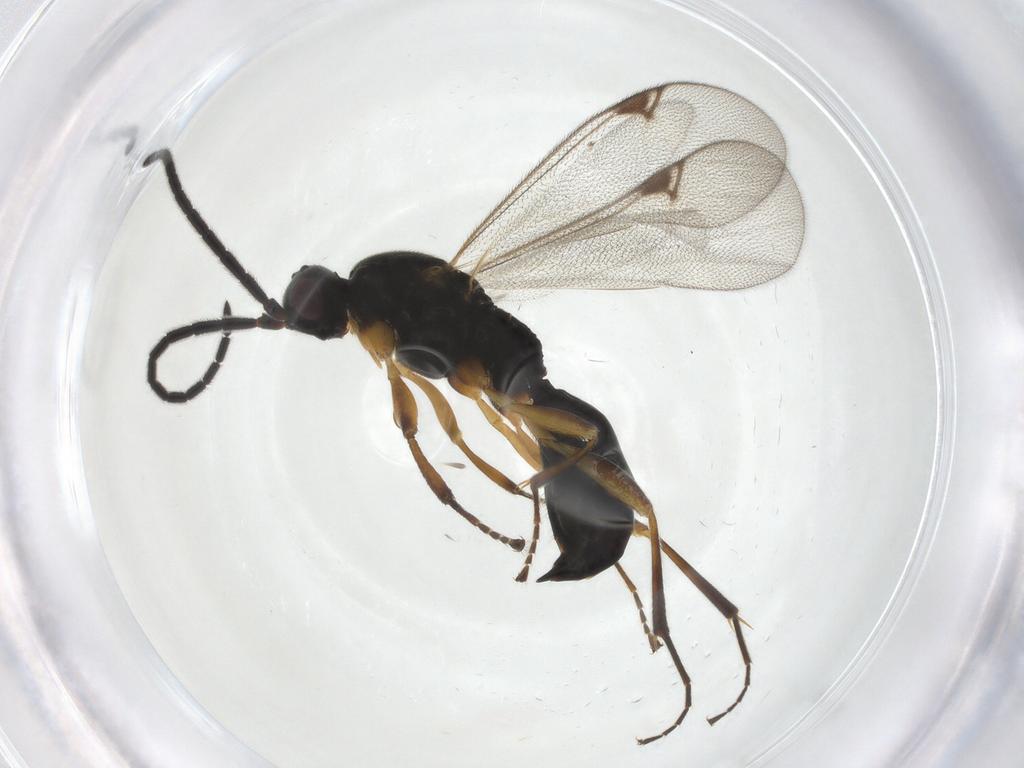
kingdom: Animalia
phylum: Arthropoda
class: Insecta
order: Hymenoptera
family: Proctotrupidae
